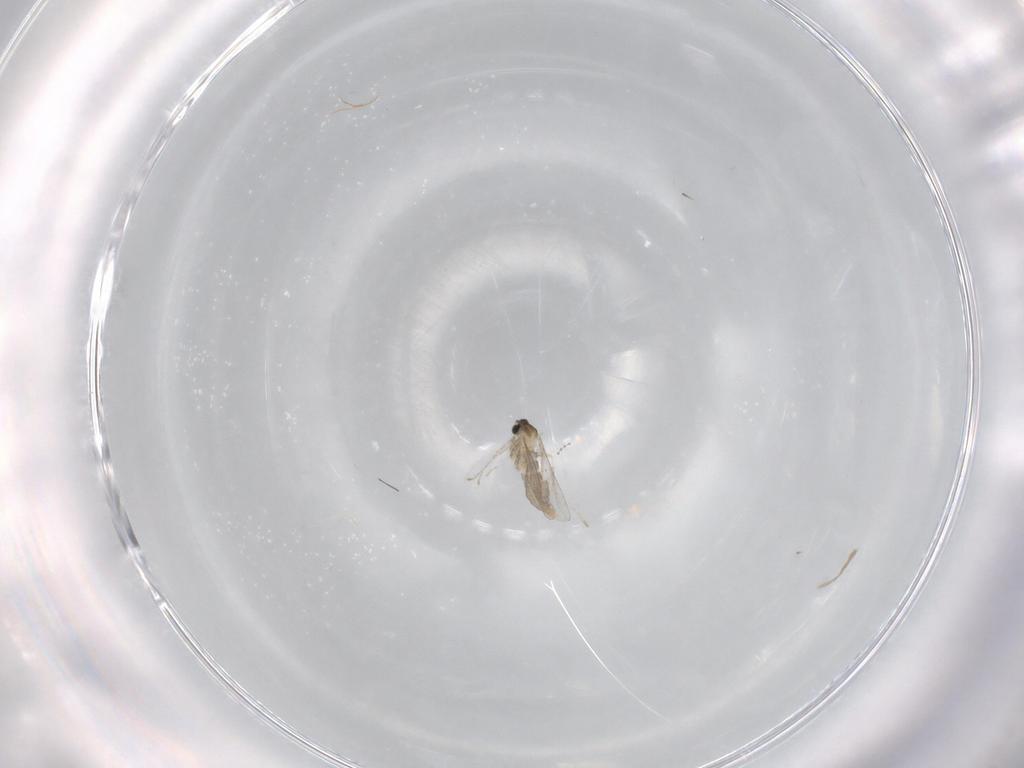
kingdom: Animalia
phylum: Arthropoda
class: Insecta
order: Diptera
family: Cecidomyiidae
